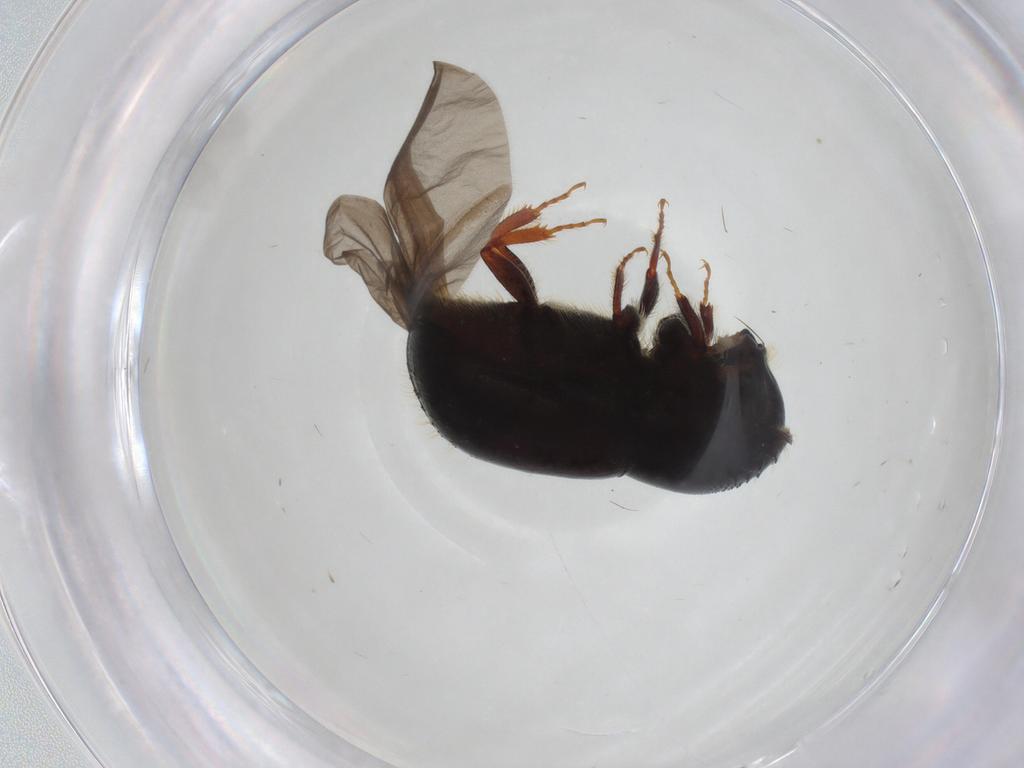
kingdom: Animalia
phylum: Arthropoda
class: Insecta
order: Coleoptera
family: Curculionidae
